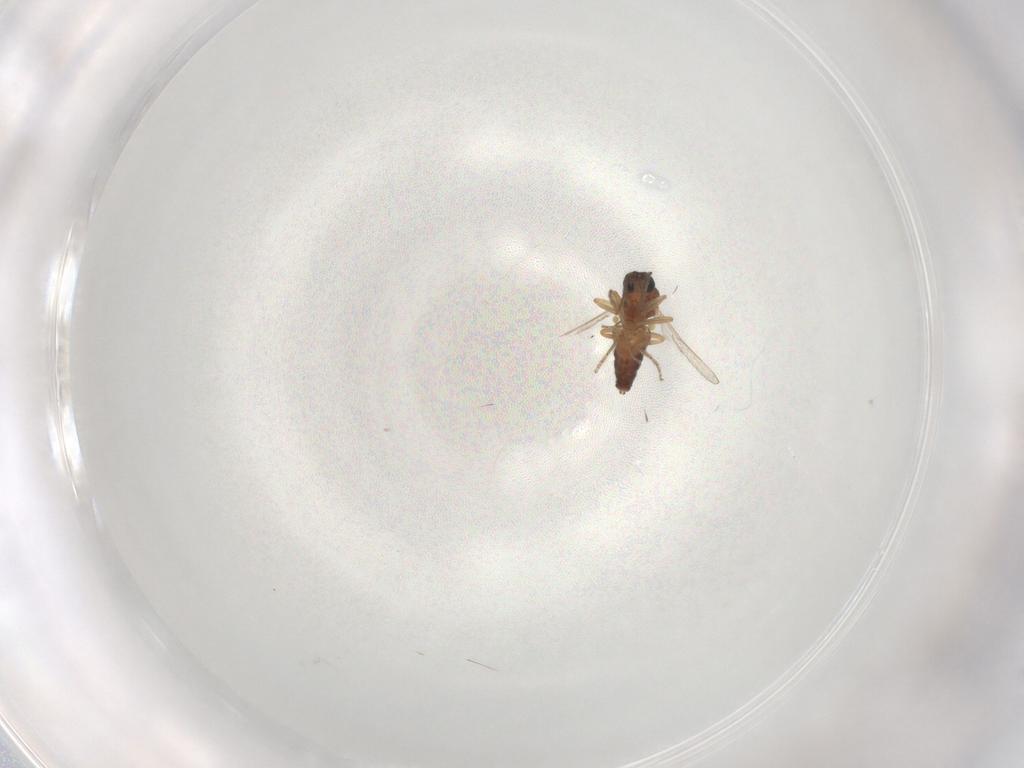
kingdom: Animalia
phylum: Arthropoda
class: Insecta
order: Diptera
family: Ceratopogonidae
